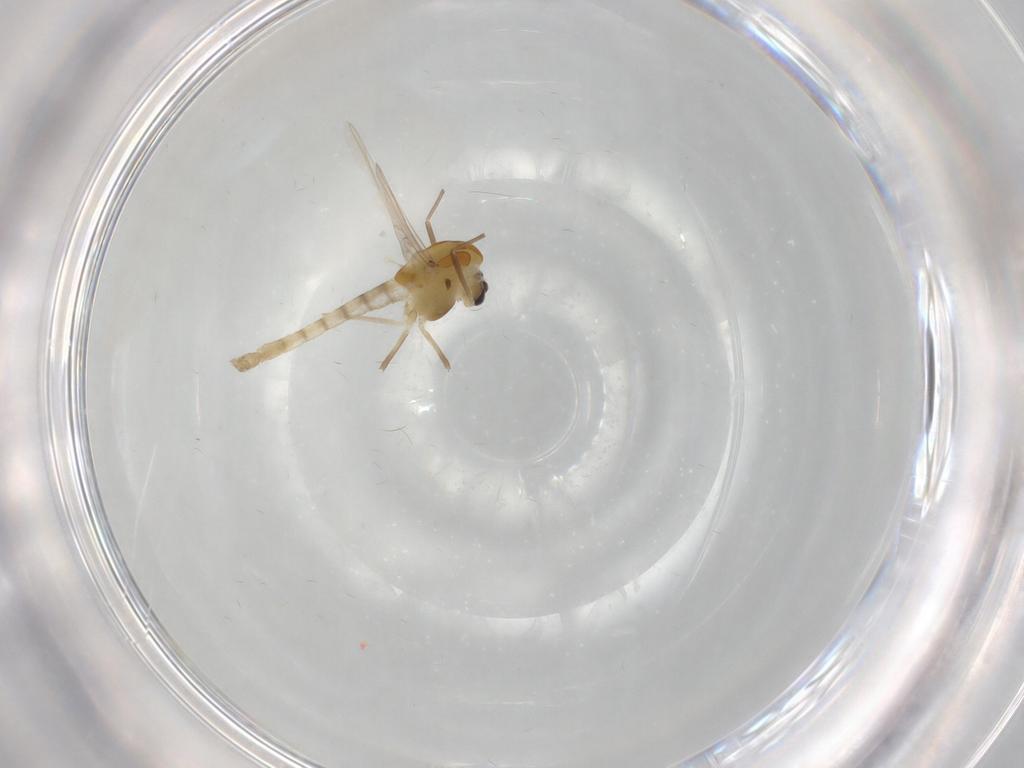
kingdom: Animalia
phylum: Arthropoda
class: Insecta
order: Diptera
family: Chironomidae
